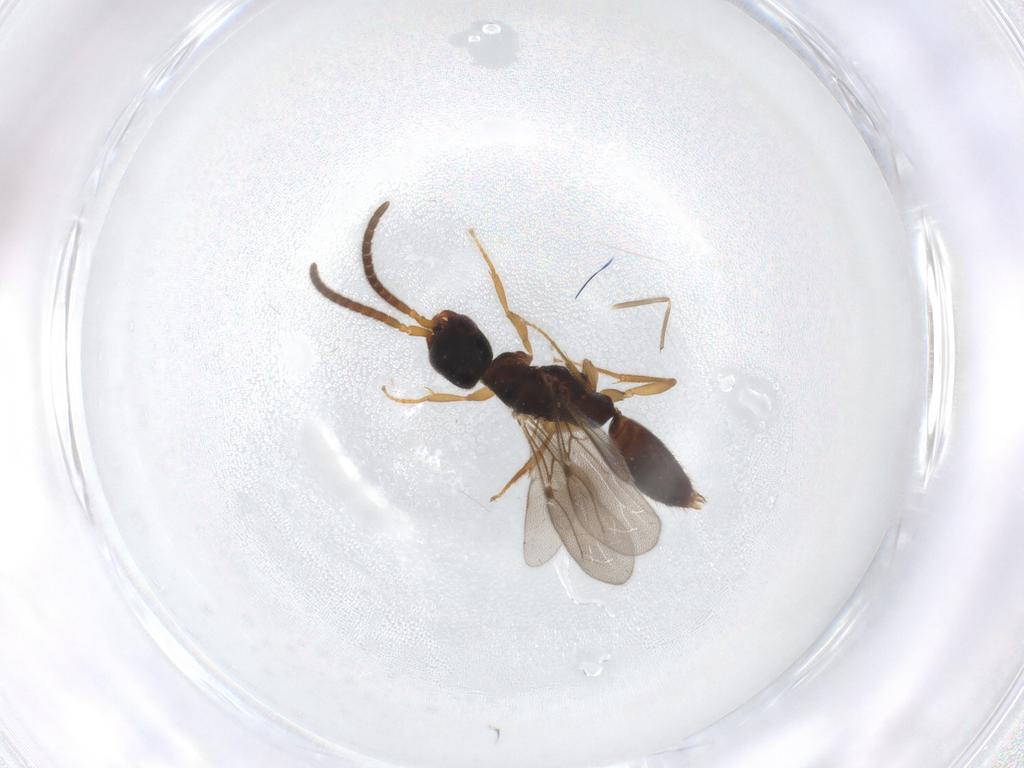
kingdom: Animalia
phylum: Arthropoda
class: Insecta
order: Hymenoptera
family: Bethylidae
